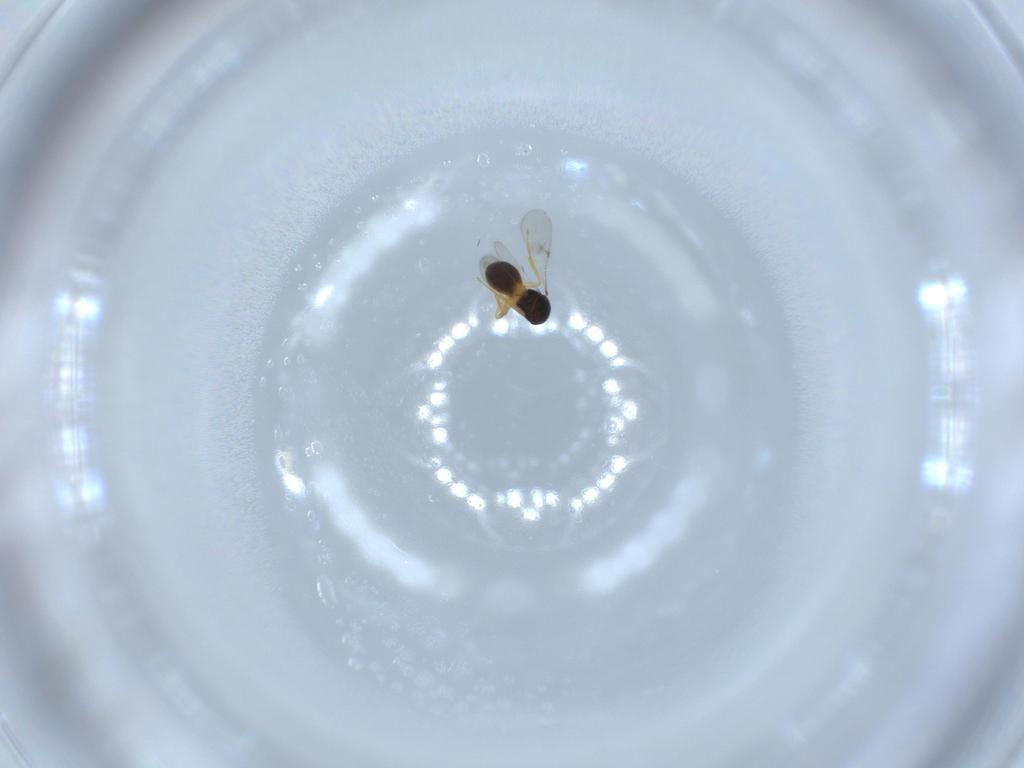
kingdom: Animalia
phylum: Arthropoda
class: Insecta
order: Hymenoptera
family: Scelionidae
